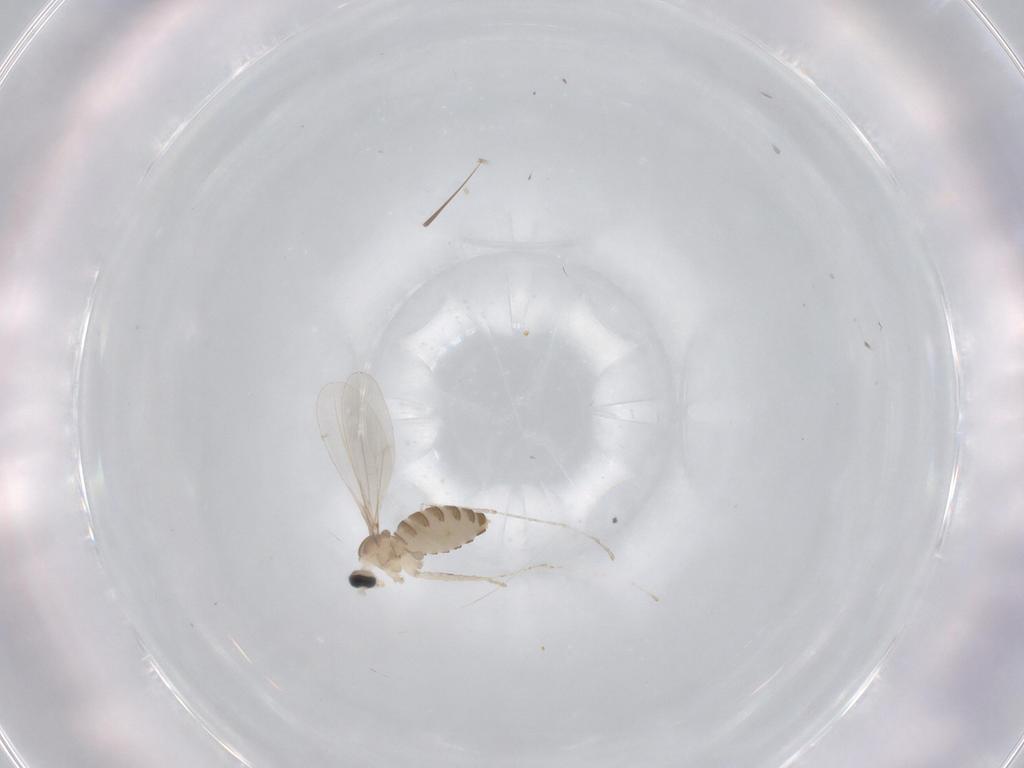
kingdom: Animalia
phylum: Arthropoda
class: Insecta
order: Diptera
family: Cecidomyiidae
